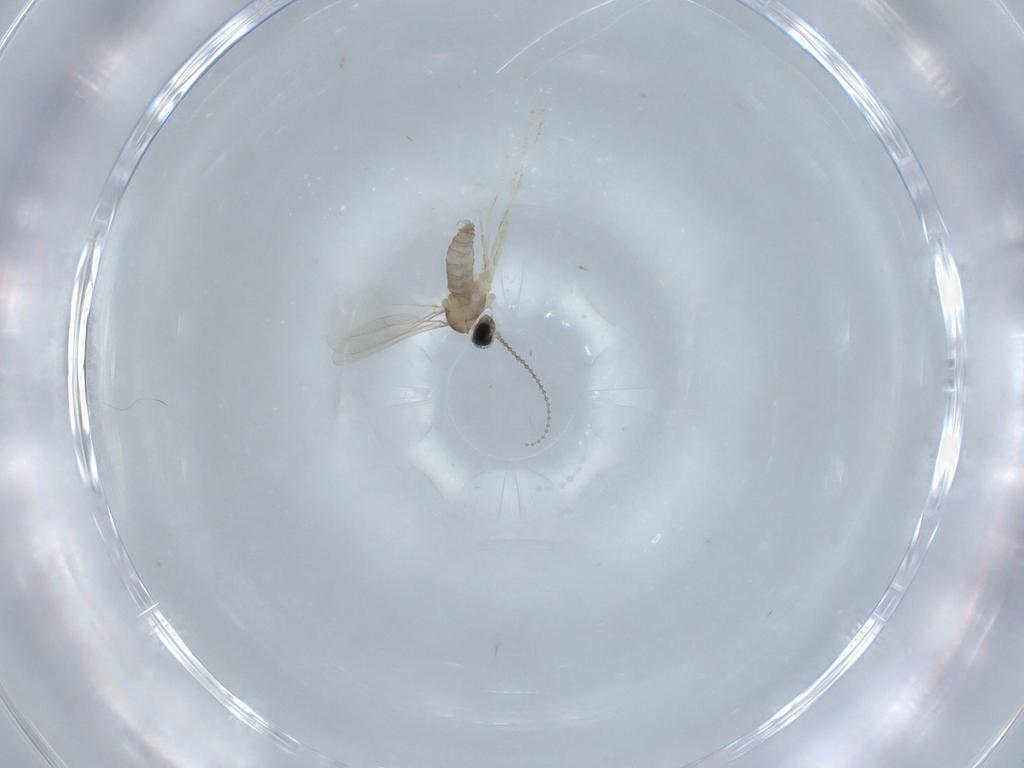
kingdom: Animalia
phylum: Arthropoda
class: Insecta
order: Diptera
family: Cecidomyiidae
